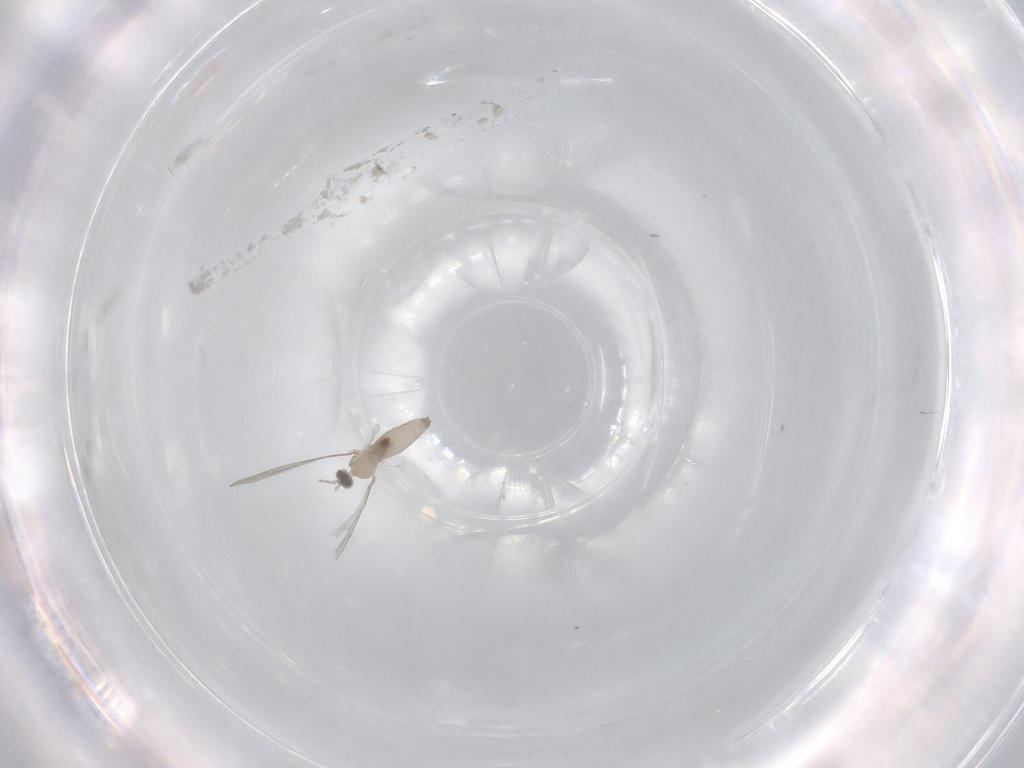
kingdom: Animalia
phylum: Arthropoda
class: Insecta
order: Diptera
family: Cecidomyiidae
